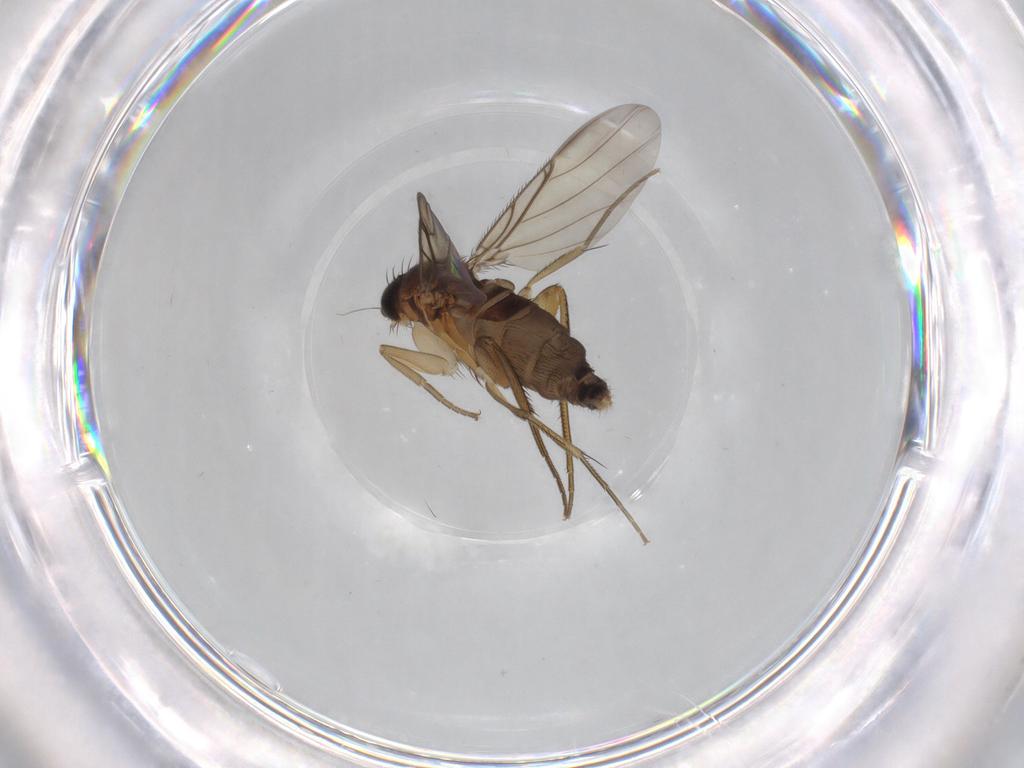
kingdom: Animalia
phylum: Arthropoda
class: Insecta
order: Diptera
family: Phoridae
